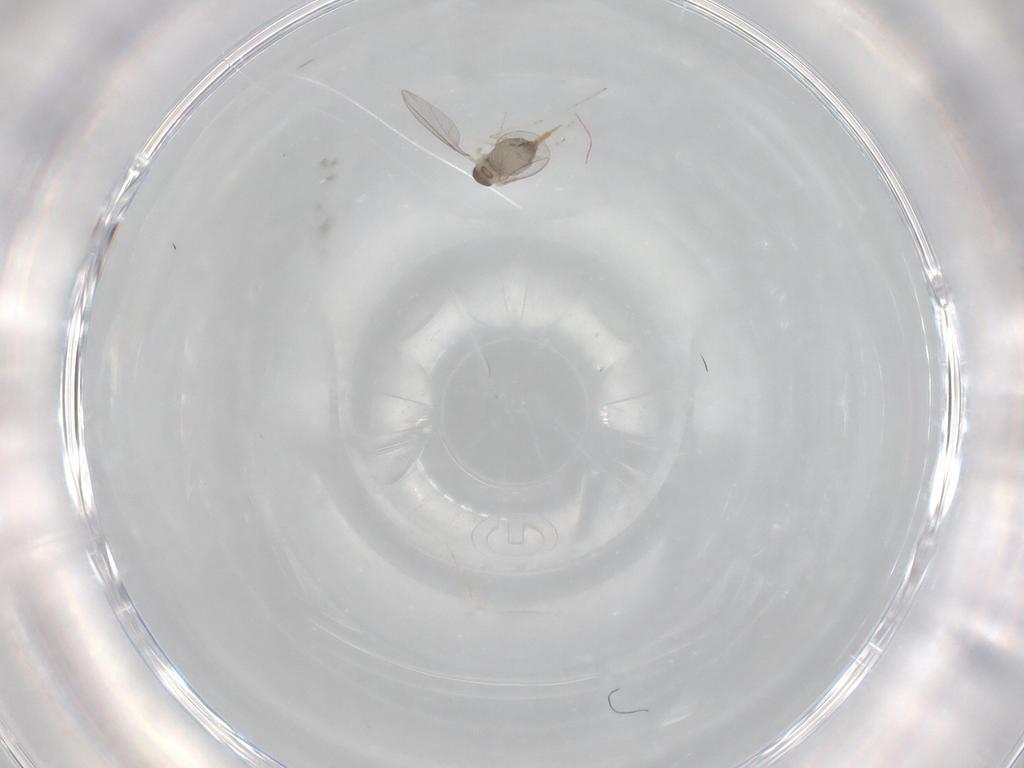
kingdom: Animalia
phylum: Arthropoda
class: Insecta
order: Diptera
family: Cecidomyiidae
